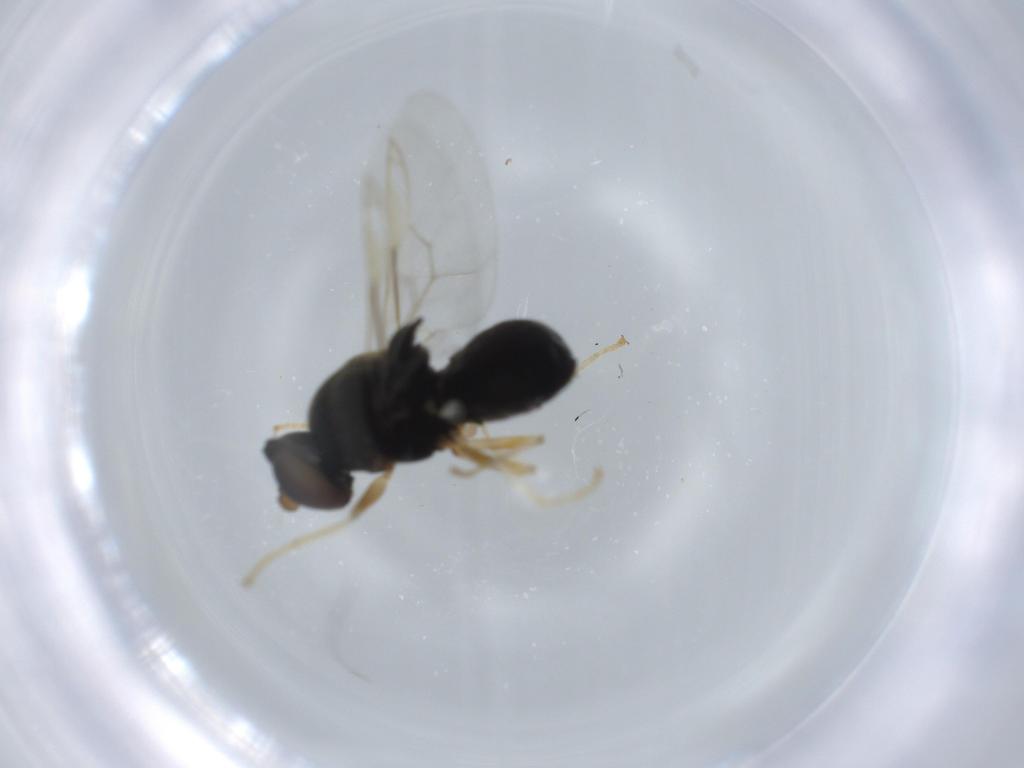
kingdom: Animalia
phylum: Arthropoda
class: Insecta
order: Diptera
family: Stratiomyidae
